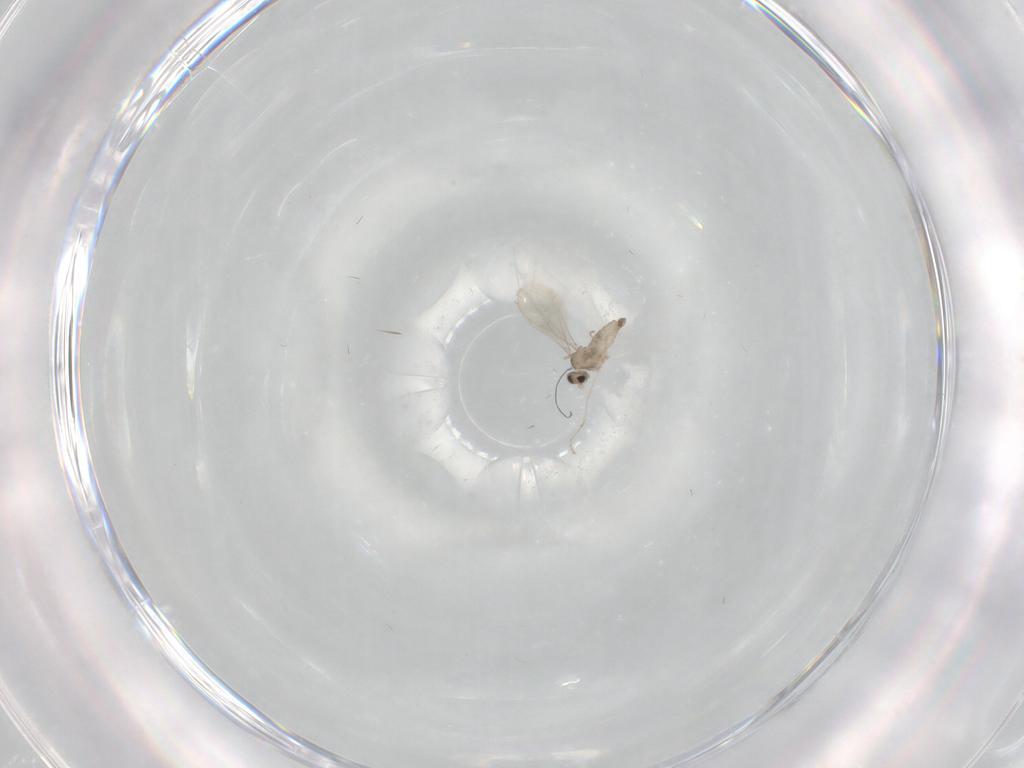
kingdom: Animalia
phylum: Arthropoda
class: Insecta
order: Diptera
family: Cecidomyiidae
